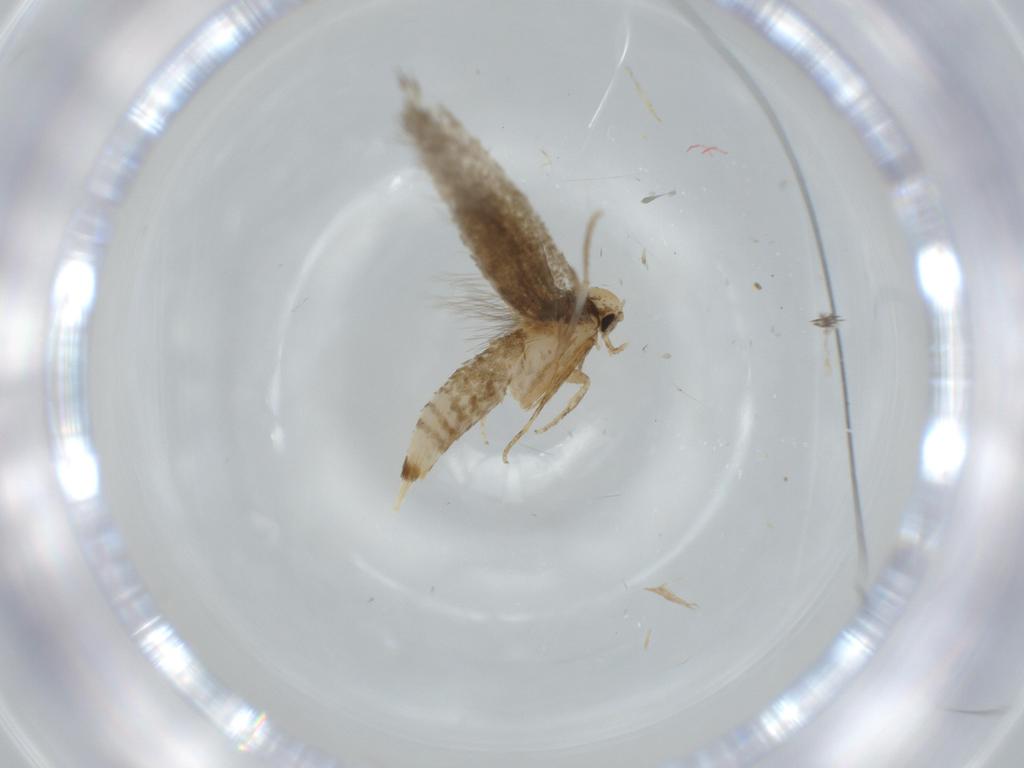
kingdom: Animalia
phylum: Arthropoda
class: Insecta
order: Lepidoptera
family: Tineidae
